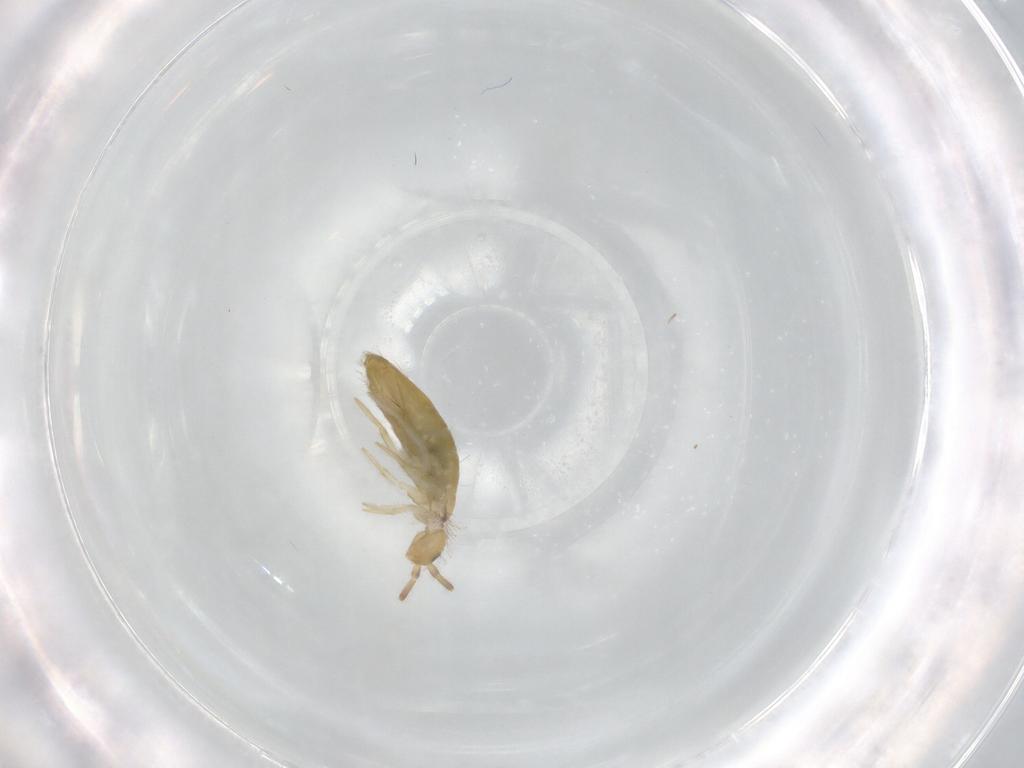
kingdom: Animalia
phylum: Arthropoda
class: Collembola
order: Entomobryomorpha
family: Entomobryidae
